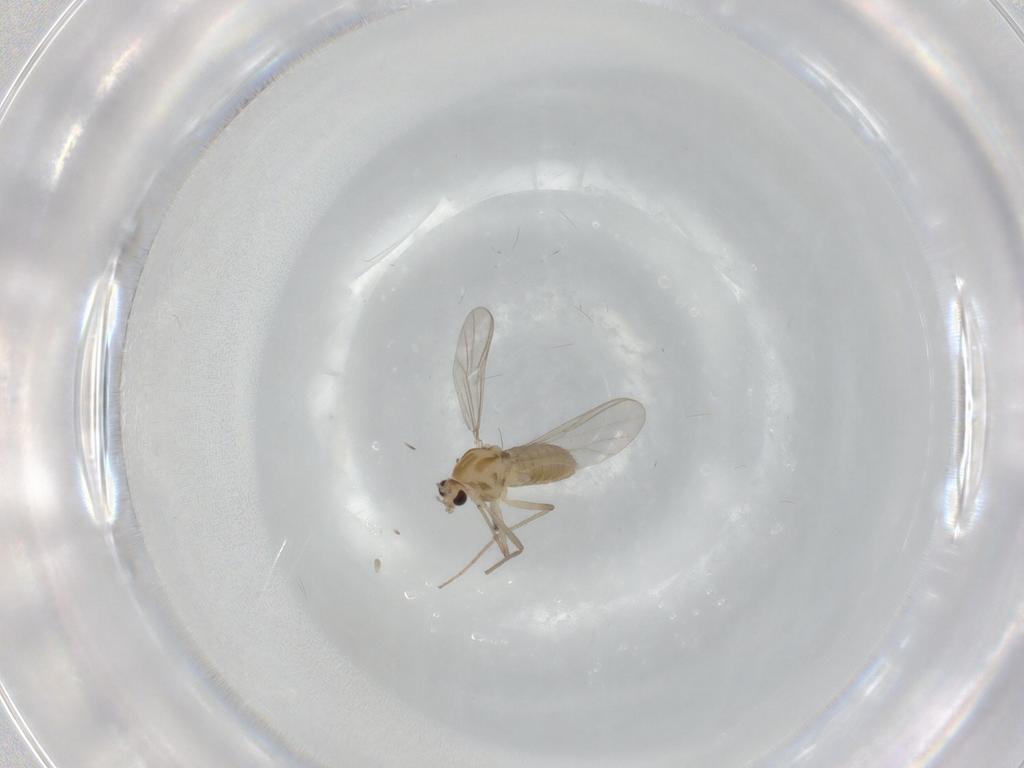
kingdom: Animalia
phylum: Arthropoda
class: Insecta
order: Diptera
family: Chironomidae
